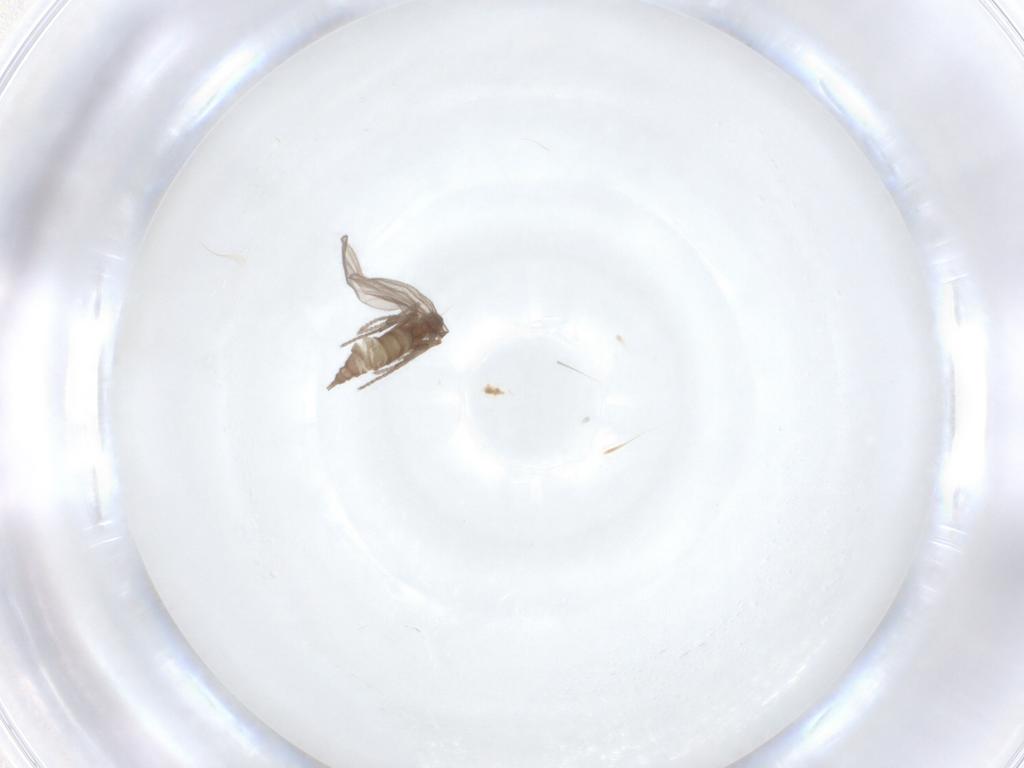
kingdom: Animalia
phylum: Arthropoda
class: Insecta
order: Diptera
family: Sciaridae
